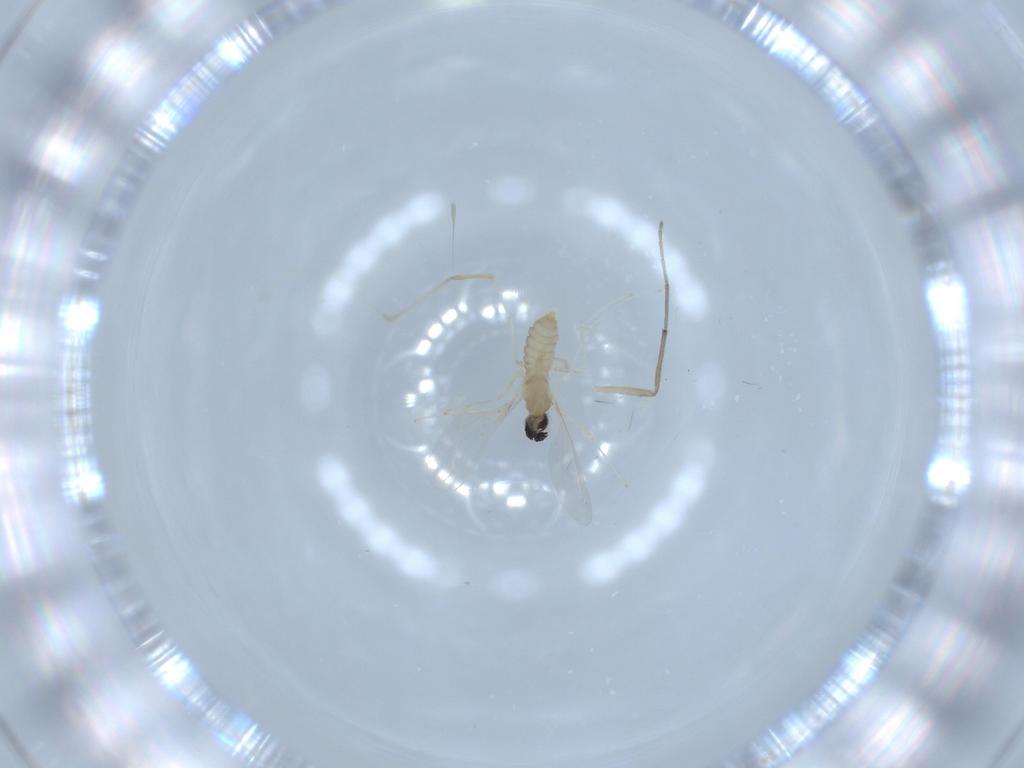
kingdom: Animalia
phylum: Arthropoda
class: Insecta
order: Diptera
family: Cecidomyiidae
